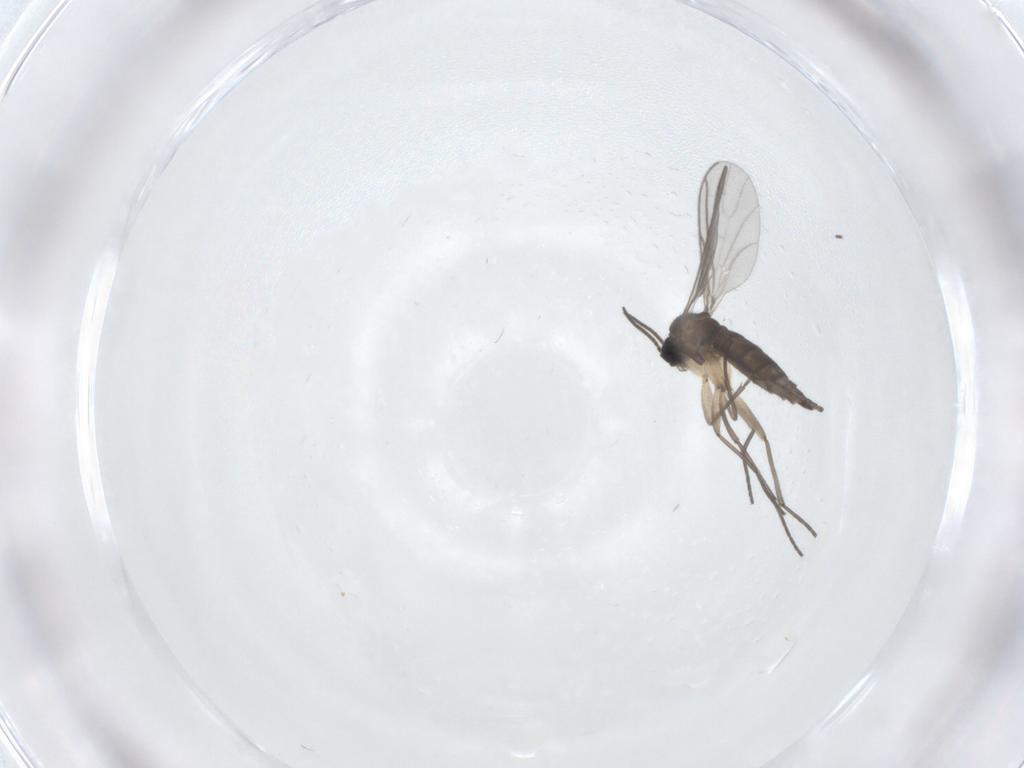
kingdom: Animalia
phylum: Arthropoda
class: Insecta
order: Diptera
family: Sciaridae
